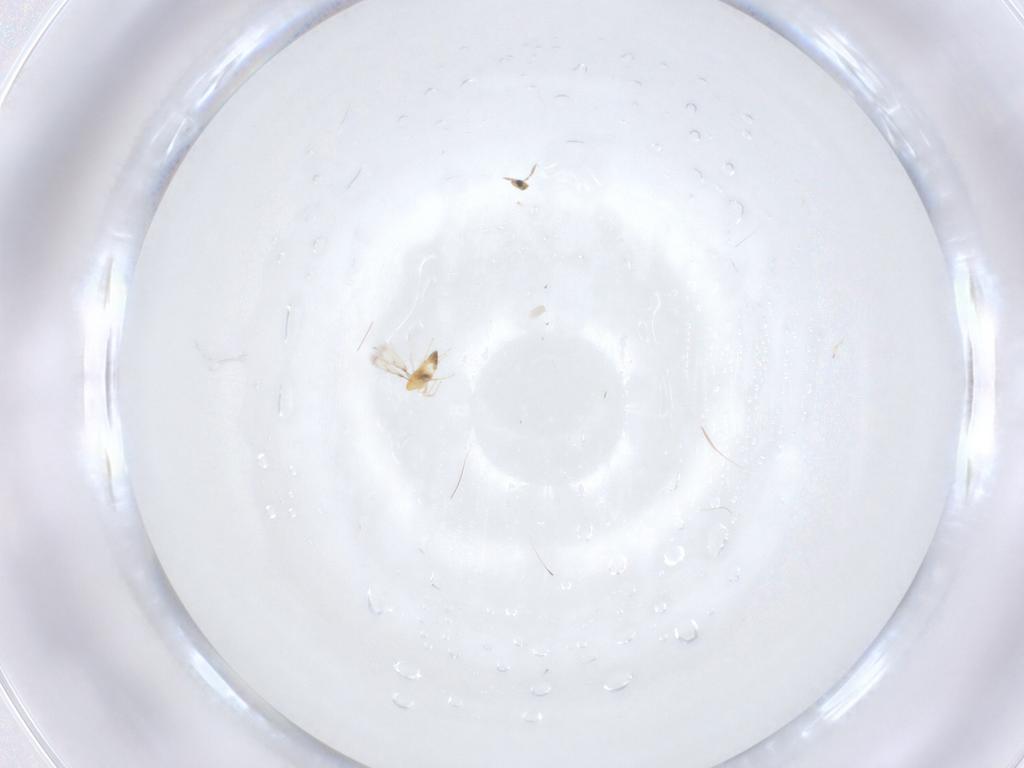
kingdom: Animalia
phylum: Arthropoda
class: Insecta
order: Hymenoptera
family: Trichogrammatidae
